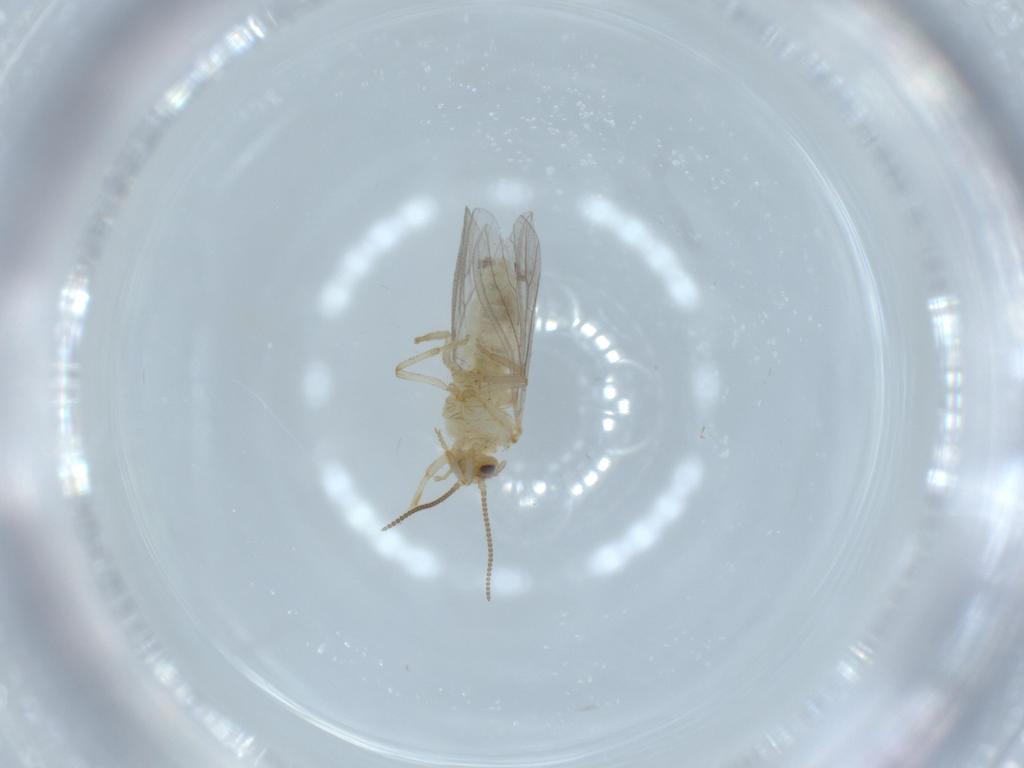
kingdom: Animalia
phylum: Arthropoda
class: Insecta
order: Neuroptera
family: Coniopterygidae
